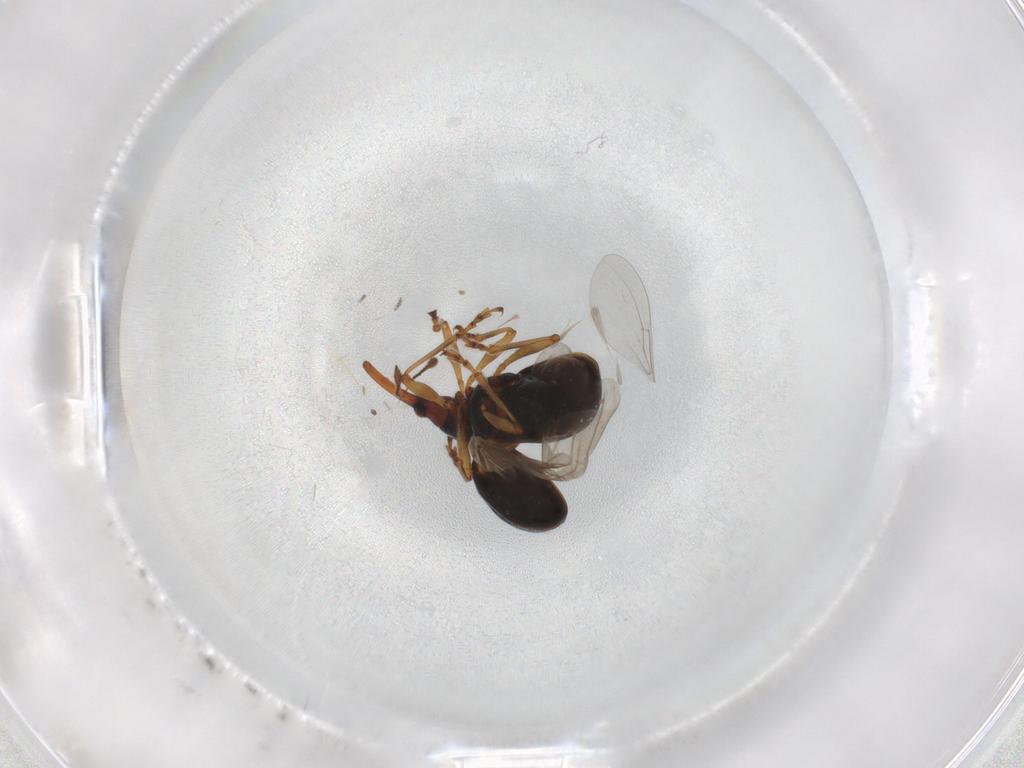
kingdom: Animalia
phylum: Arthropoda
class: Insecta
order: Coleoptera
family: Brentidae
